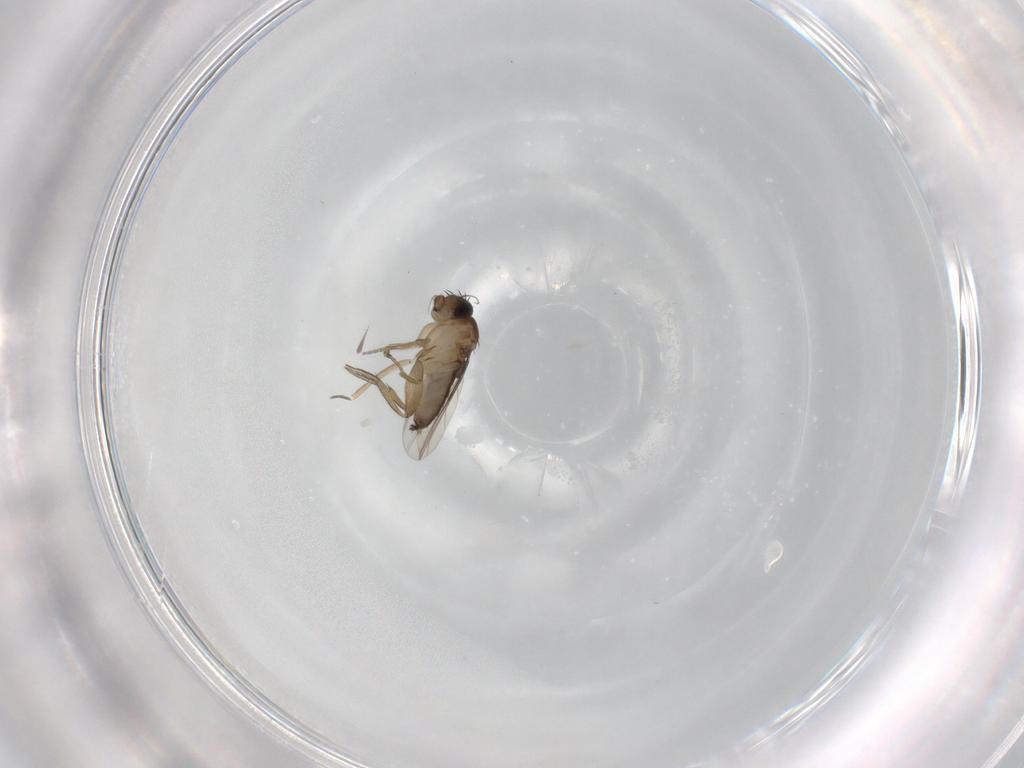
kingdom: Animalia
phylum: Arthropoda
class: Insecta
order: Diptera
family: Phoridae
